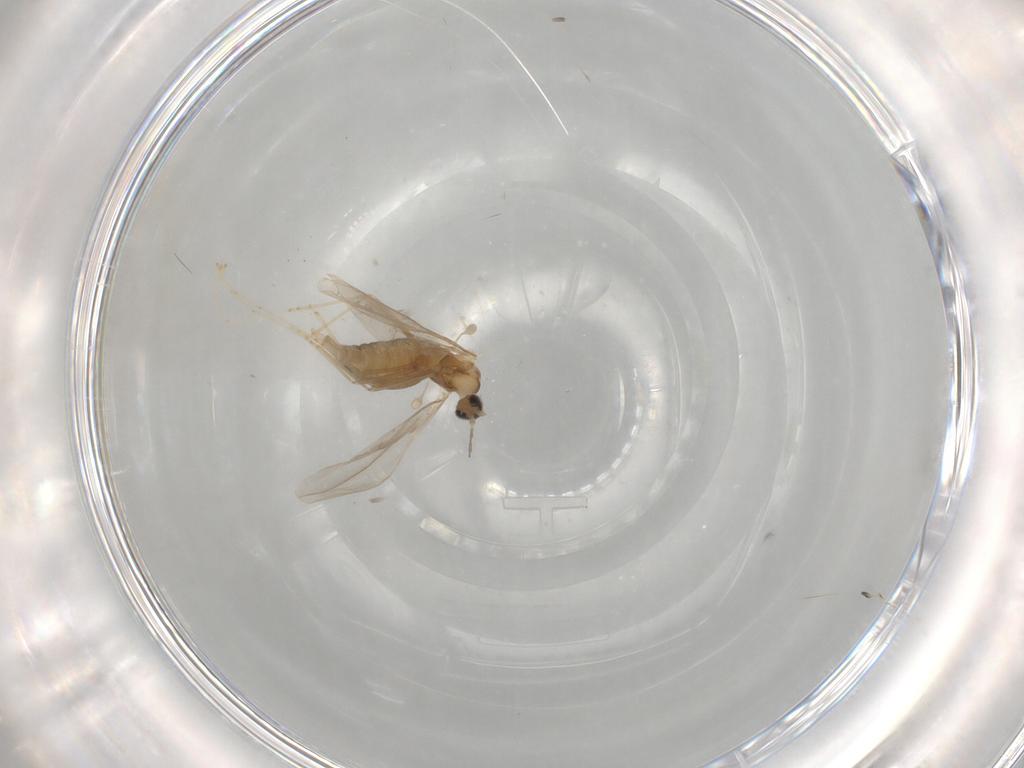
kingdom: Animalia
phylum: Arthropoda
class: Insecta
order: Diptera
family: Cecidomyiidae
